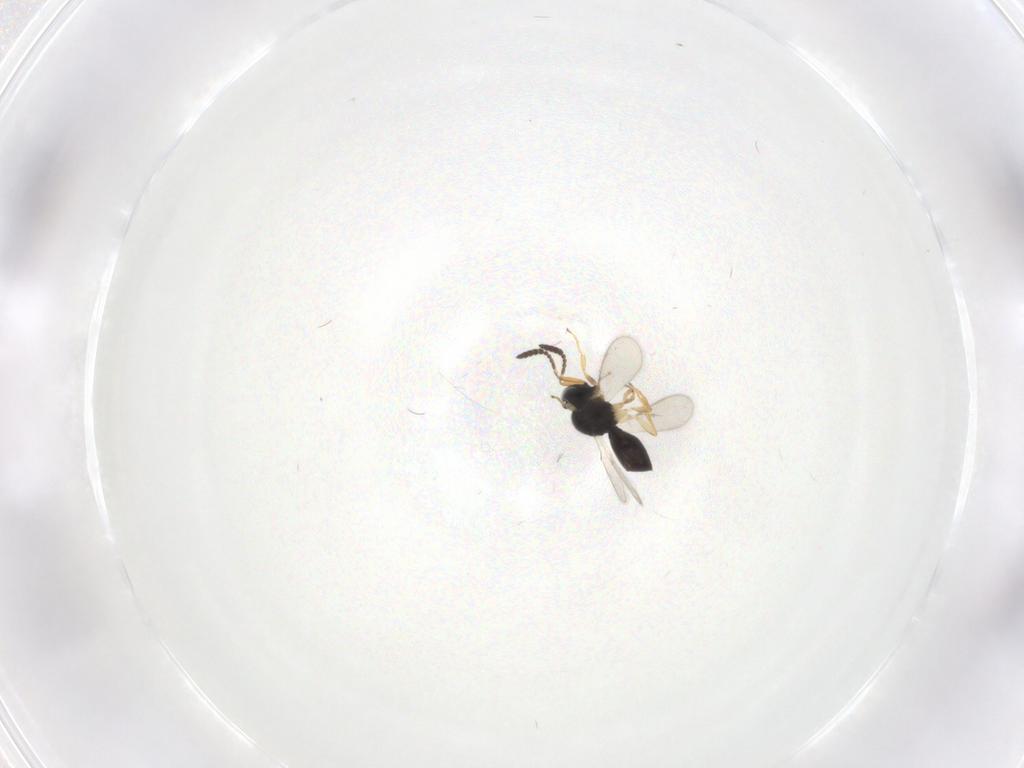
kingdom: Animalia
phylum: Arthropoda
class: Insecta
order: Hymenoptera
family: Scelionidae
